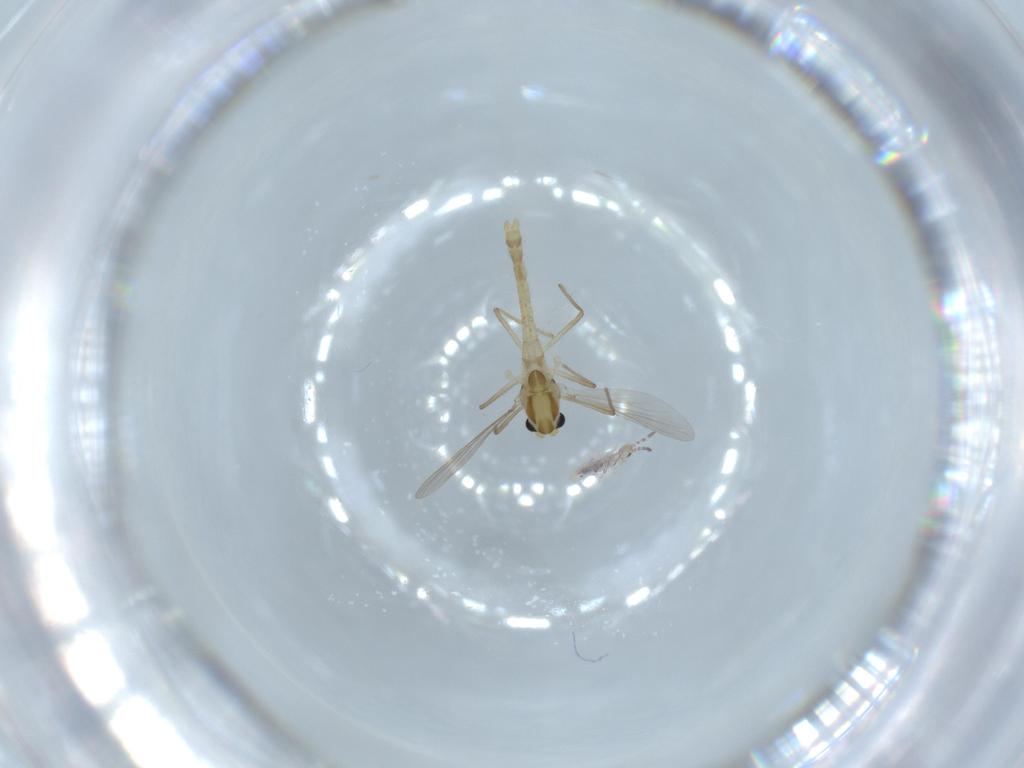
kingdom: Animalia
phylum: Arthropoda
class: Insecta
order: Diptera
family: Chironomidae
